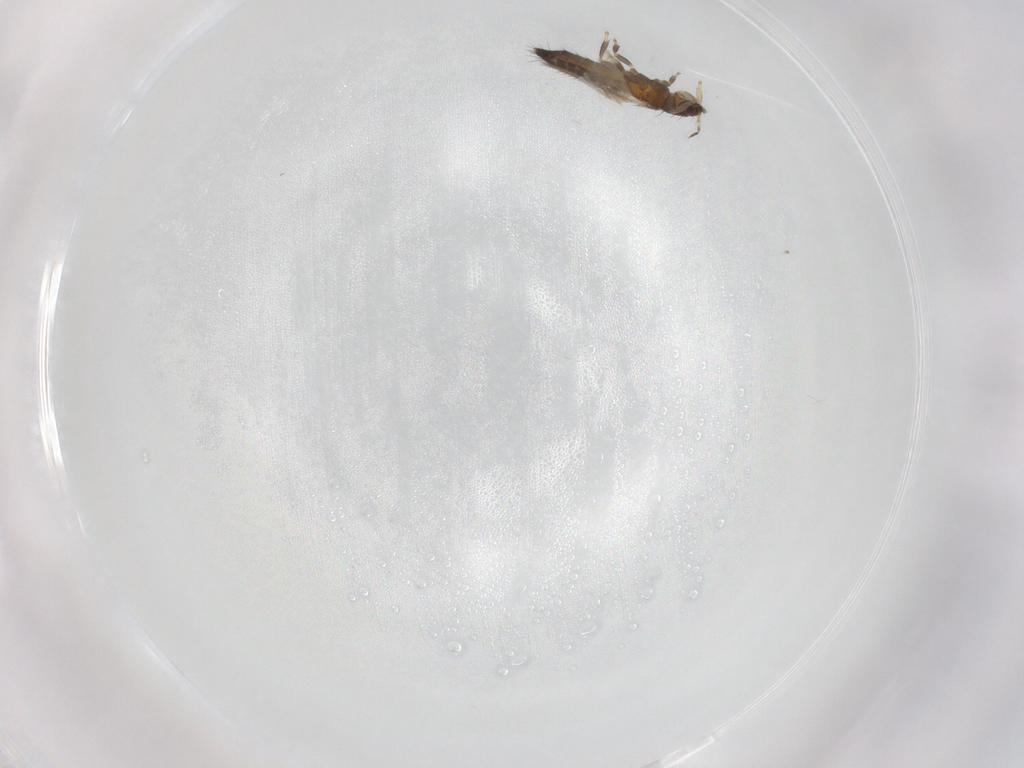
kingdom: Animalia
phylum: Arthropoda
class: Insecta
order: Thysanoptera
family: Thripidae
